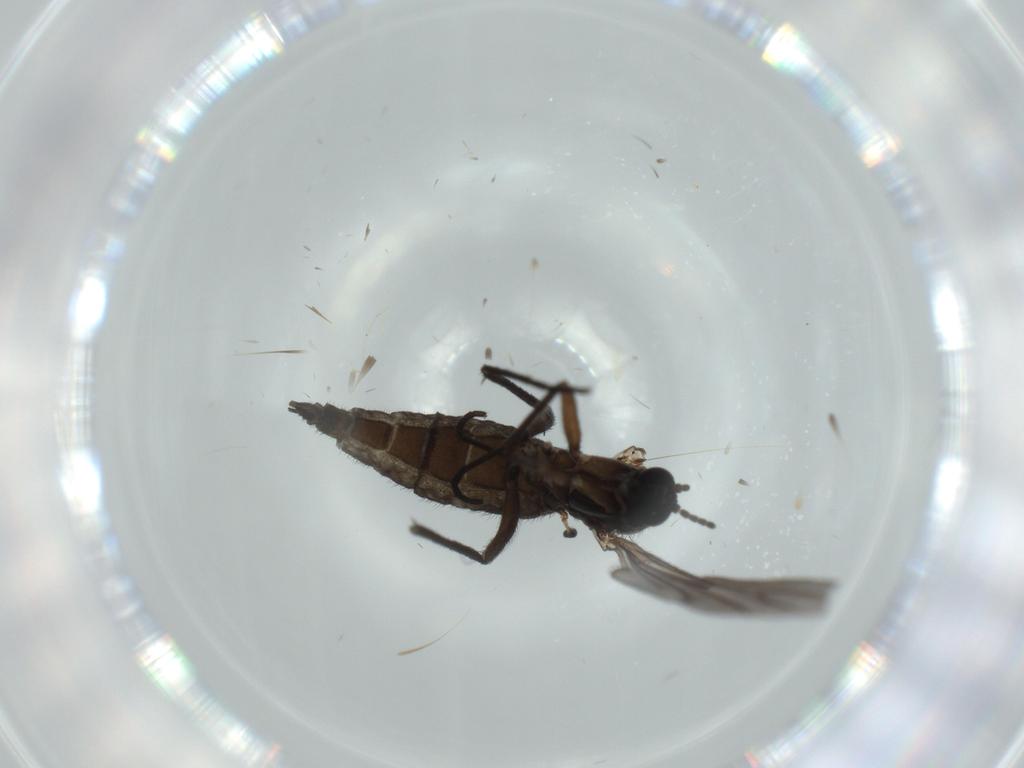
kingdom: Animalia
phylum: Arthropoda
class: Insecta
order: Diptera
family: Sciaridae
